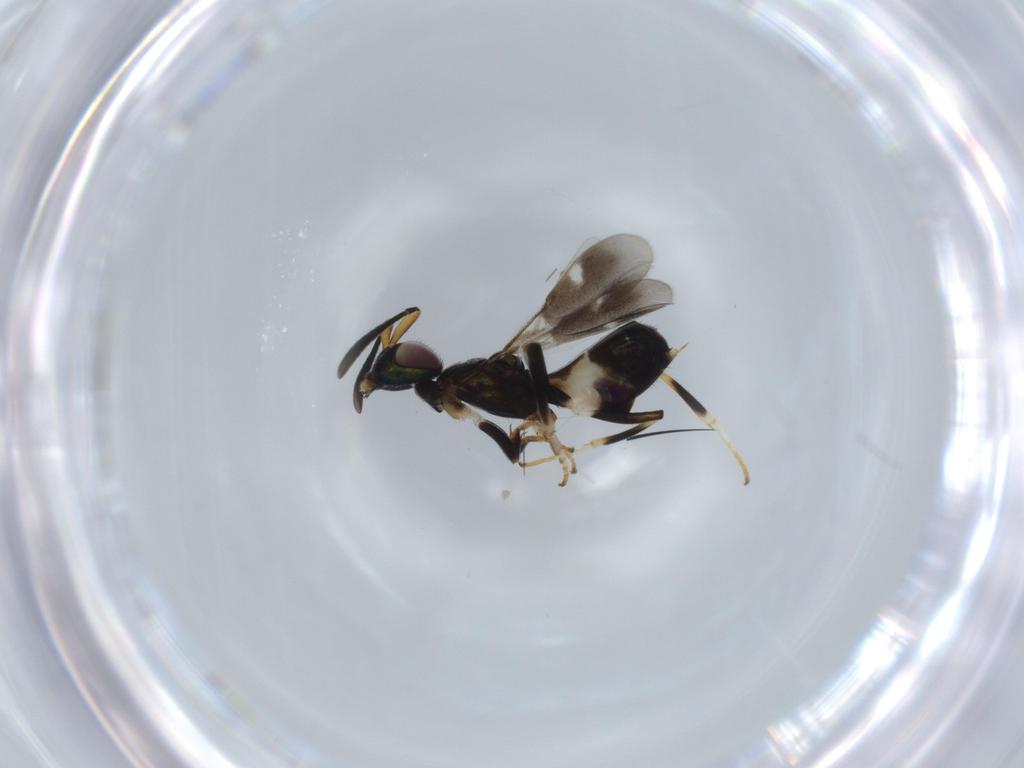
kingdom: Animalia
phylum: Arthropoda
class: Insecta
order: Hymenoptera
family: Eupelmidae
